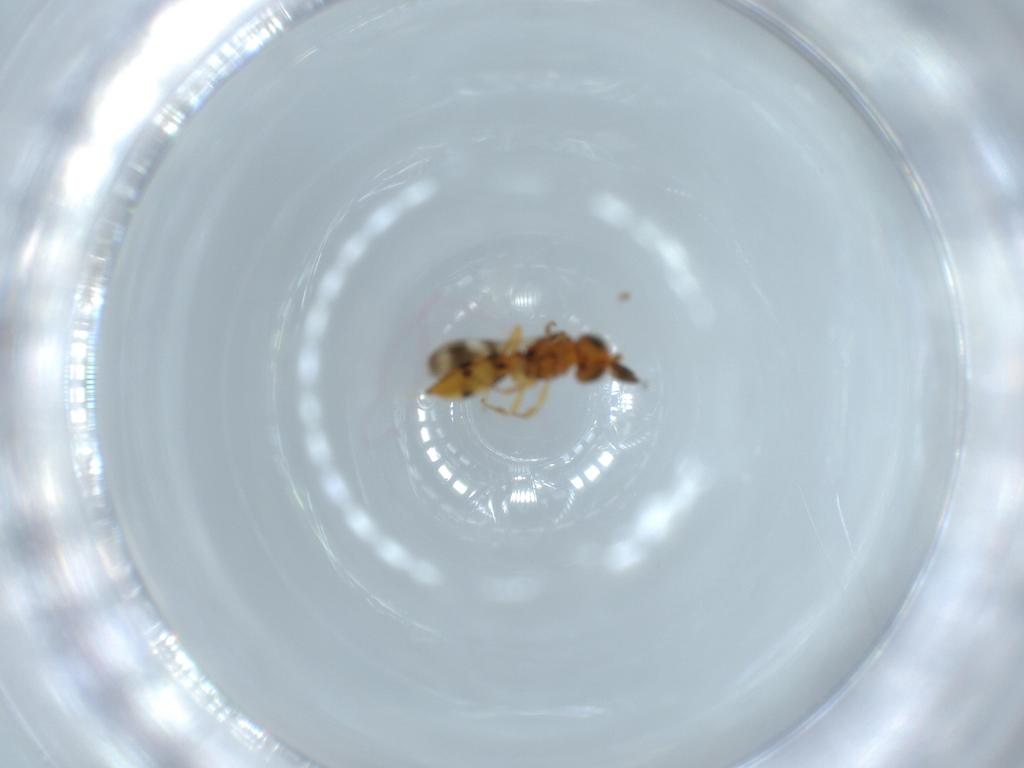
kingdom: Animalia
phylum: Arthropoda
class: Insecta
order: Hymenoptera
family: Scelionidae
